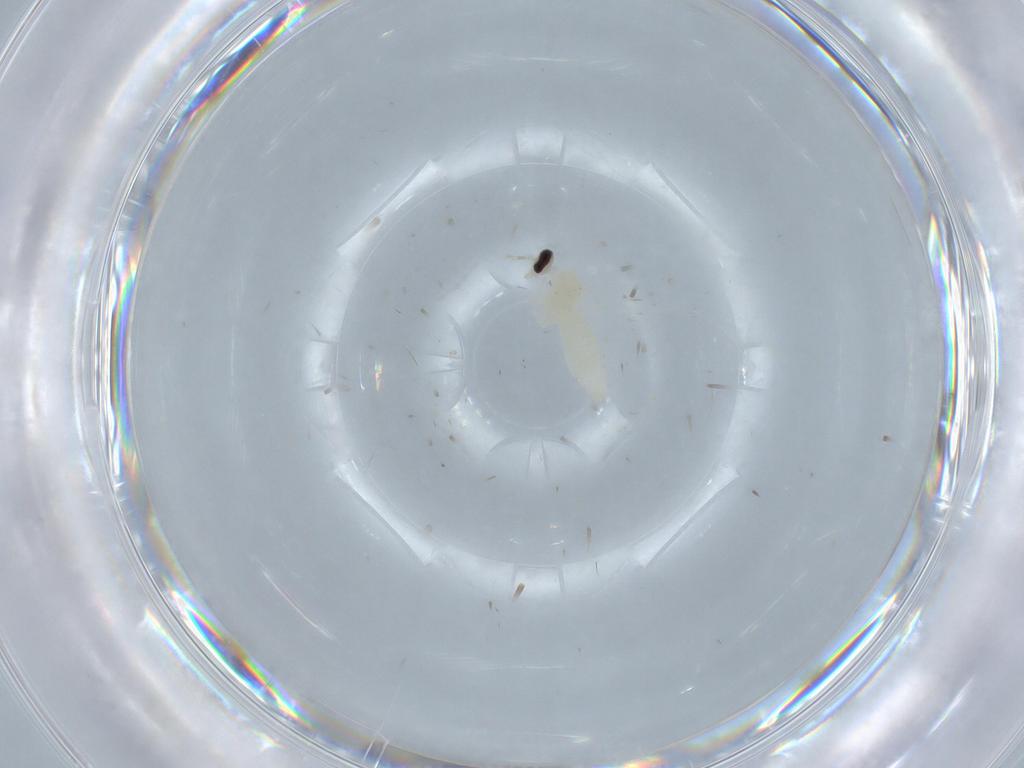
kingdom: Animalia
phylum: Arthropoda
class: Insecta
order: Diptera
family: Cecidomyiidae
